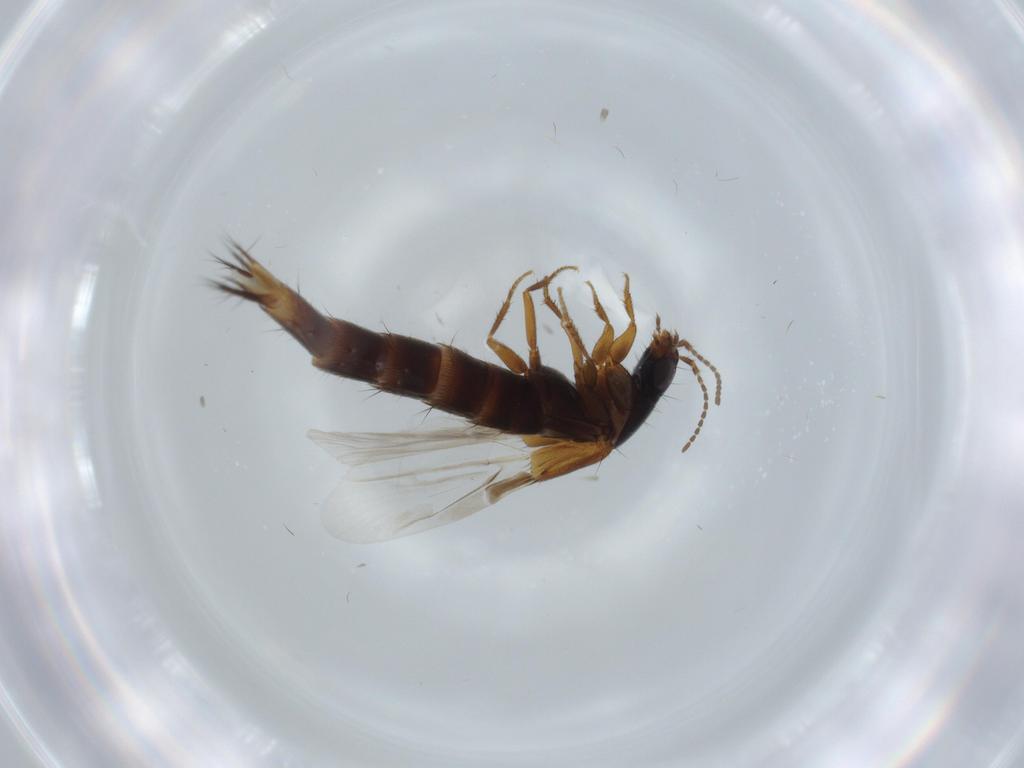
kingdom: Animalia
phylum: Arthropoda
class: Insecta
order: Coleoptera
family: Staphylinidae
